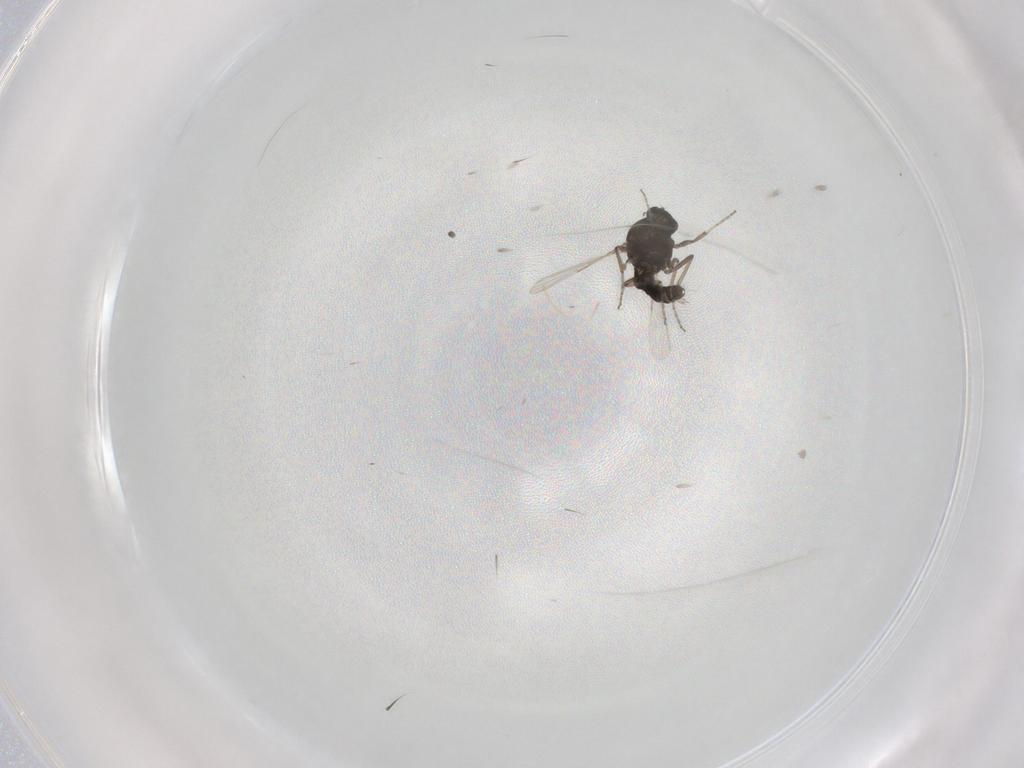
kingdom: Animalia
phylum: Arthropoda
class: Insecta
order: Diptera
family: Ceratopogonidae
